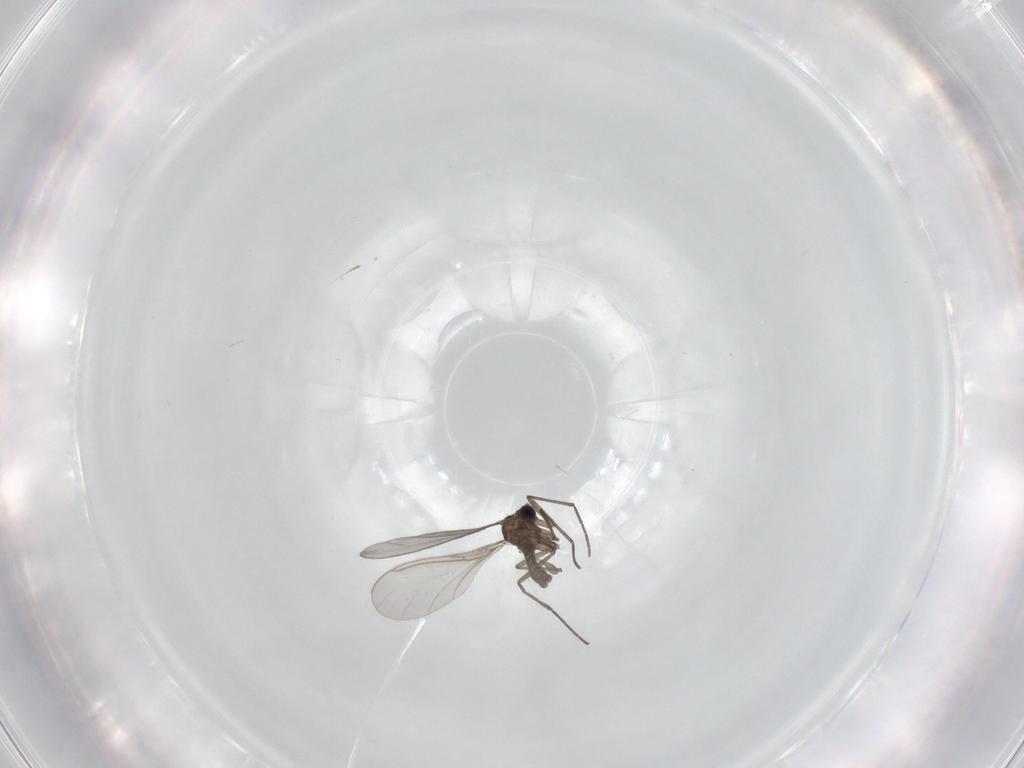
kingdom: Animalia
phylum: Arthropoda
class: Insecta
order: Diptera
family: Sciaridae
